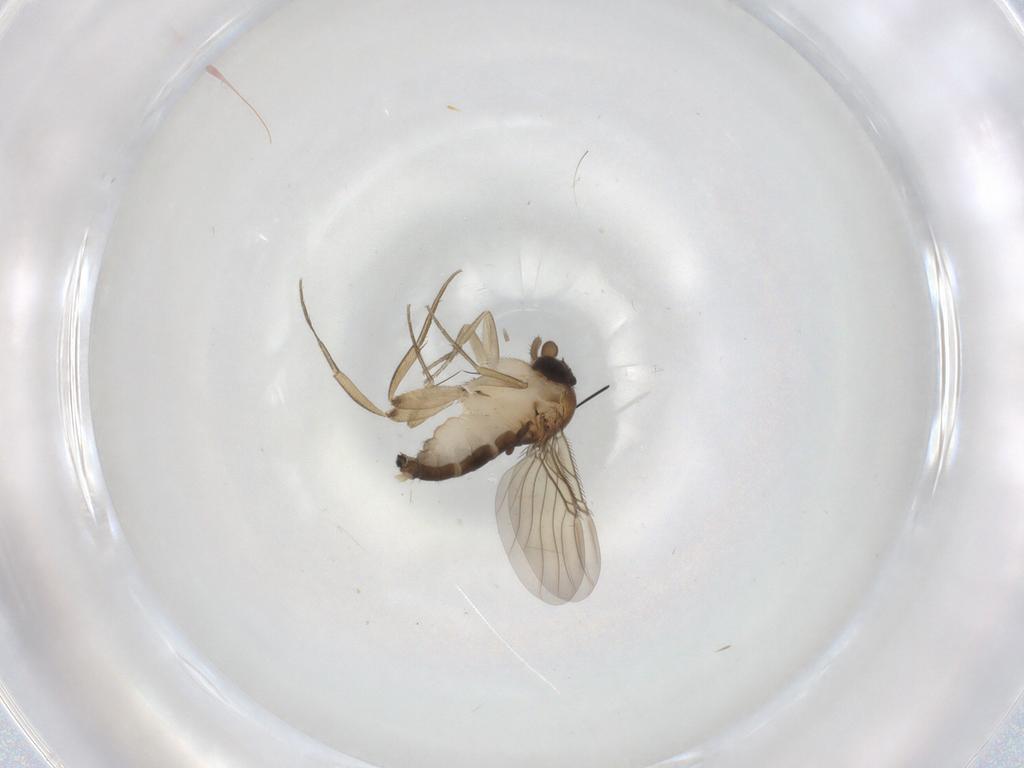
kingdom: Animalia
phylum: Arthropoda
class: Insecta
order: Diptera
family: Phoridae
